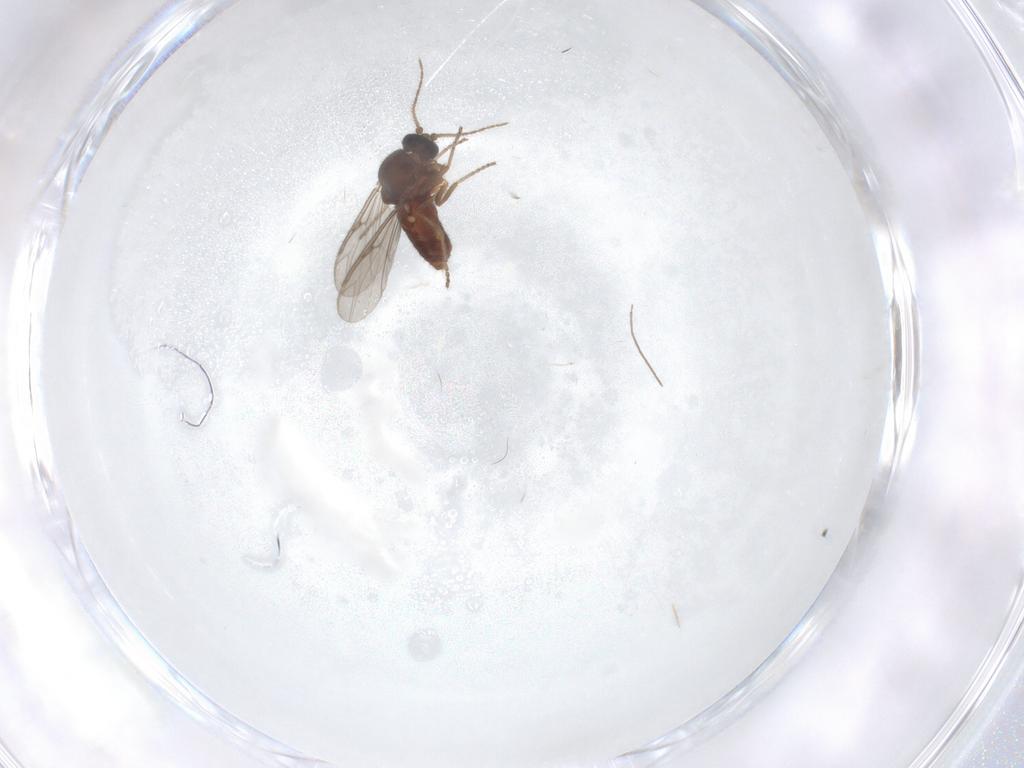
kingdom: Animalia
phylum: Arthropoda
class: Insecta
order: Diptera
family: Ceratopogonidae
